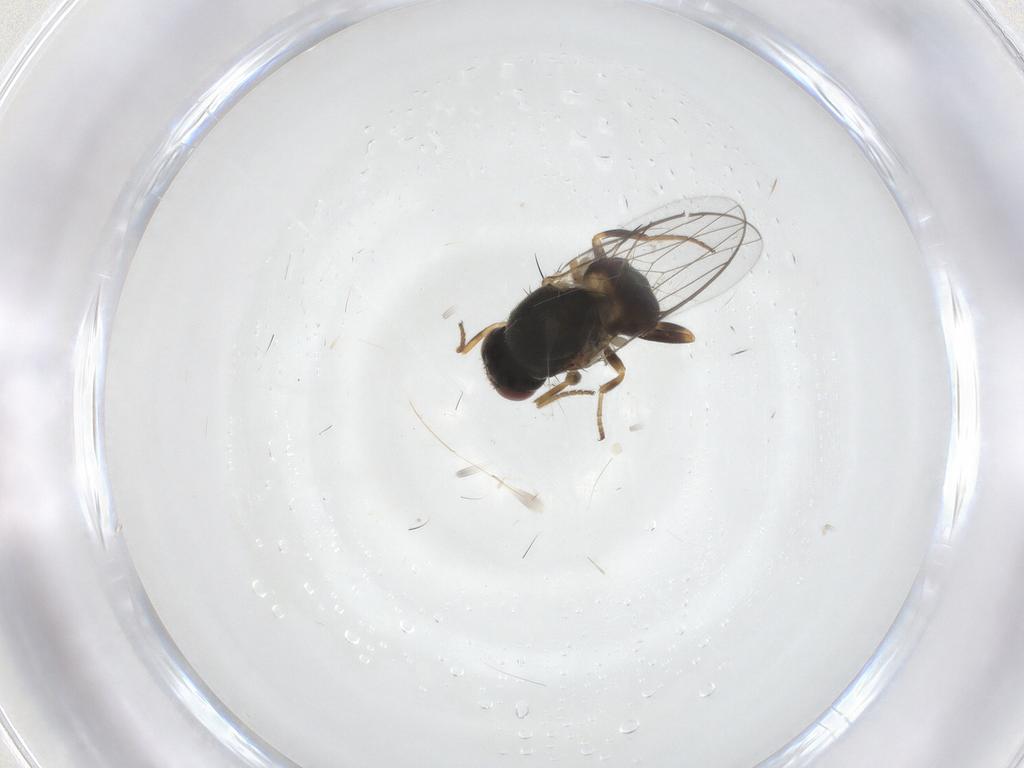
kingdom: Animalia
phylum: Arthropoda
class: Insecta
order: Diptera
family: Chloropidae
